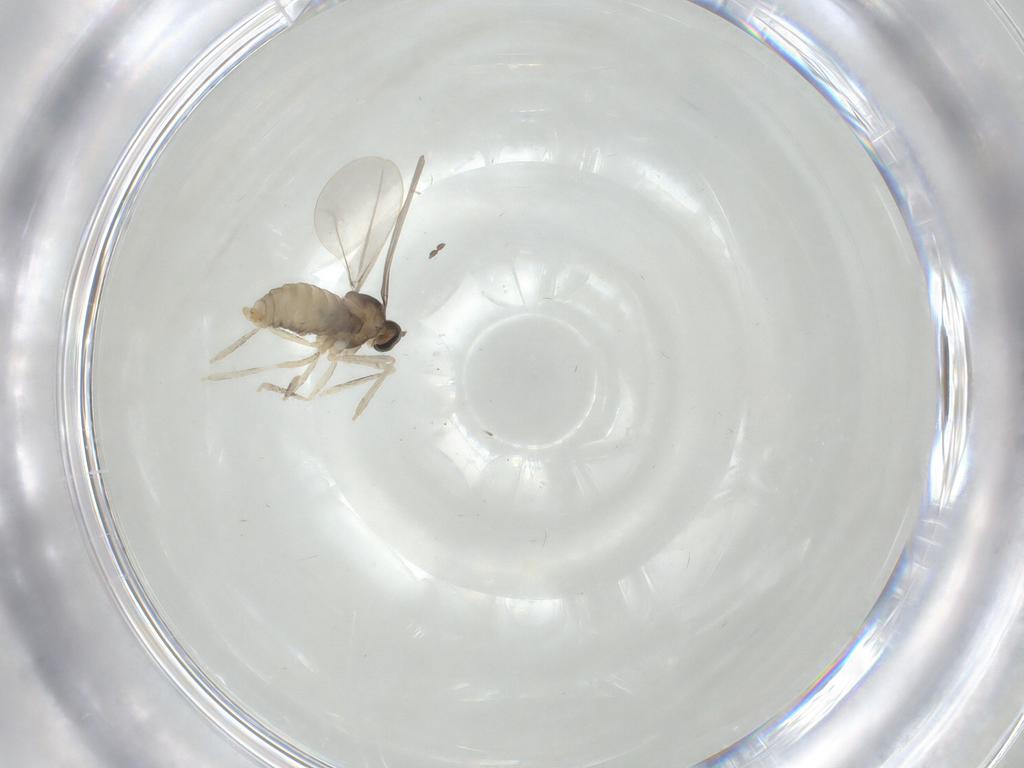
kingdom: Animalia
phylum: Arthropoda
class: Insecta
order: Diptera
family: Cecidomyiidae
